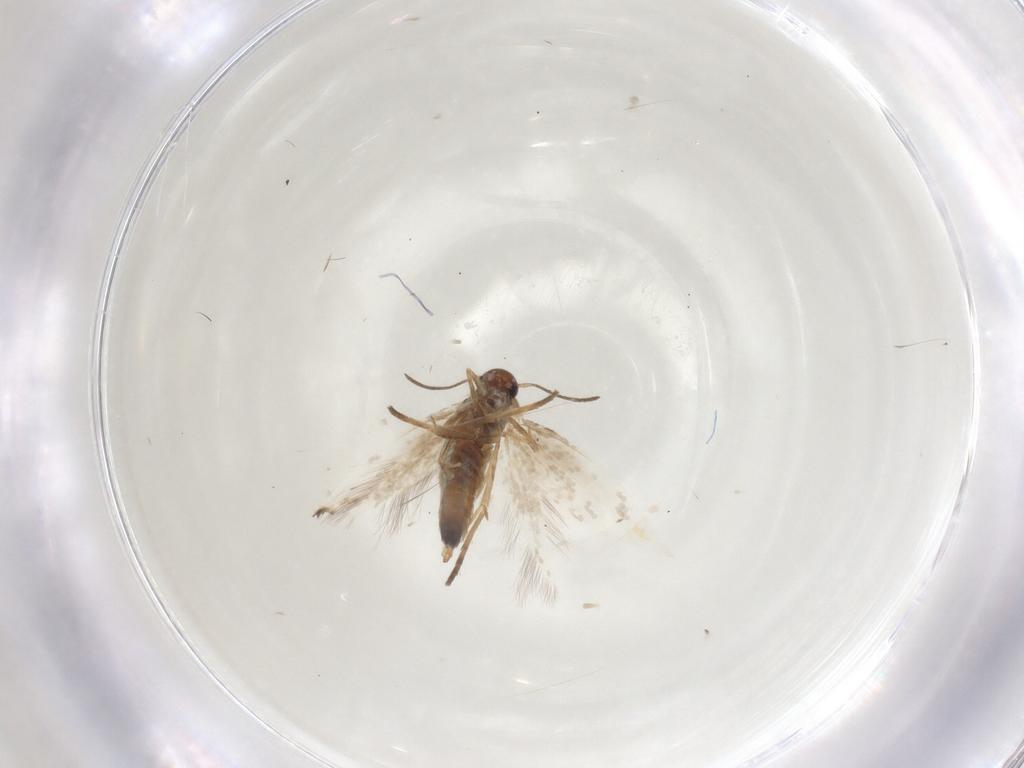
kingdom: Animalia
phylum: Arthropoda
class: Insecta
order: Lepidoptera
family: Heliozelidae
